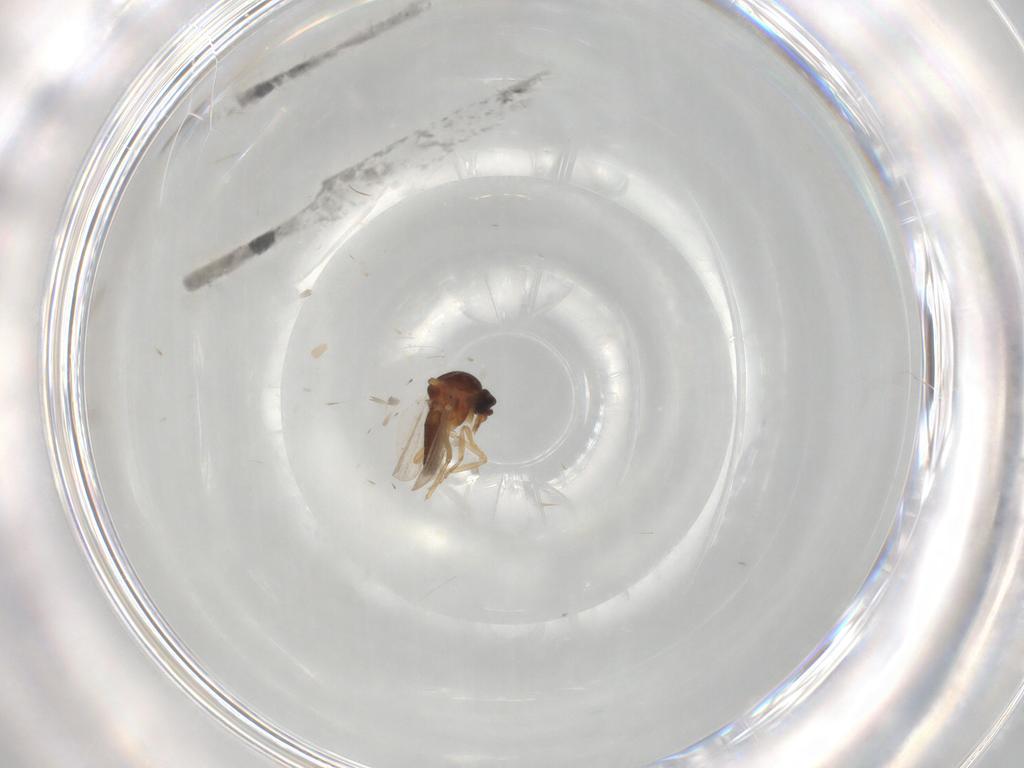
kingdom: Animalia
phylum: Arthropoda
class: Insecta
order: Diptera
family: Ceratopogonidae
